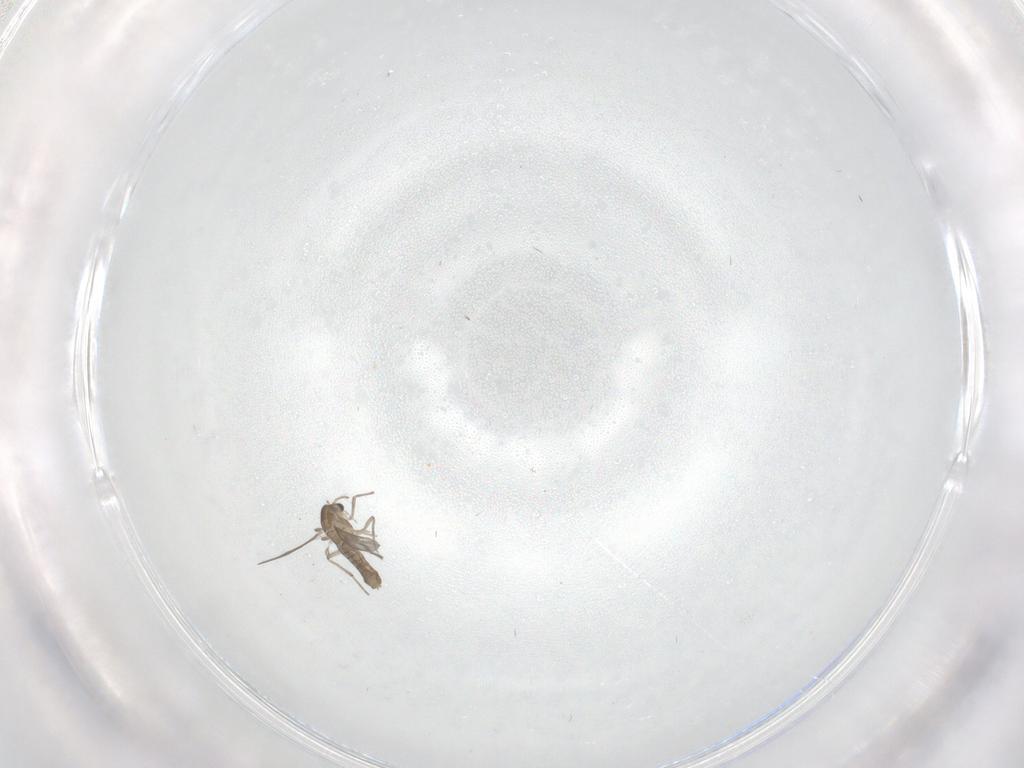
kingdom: Animalia
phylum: Arthropoda
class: Insecta
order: Diptera
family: Chironomidae
